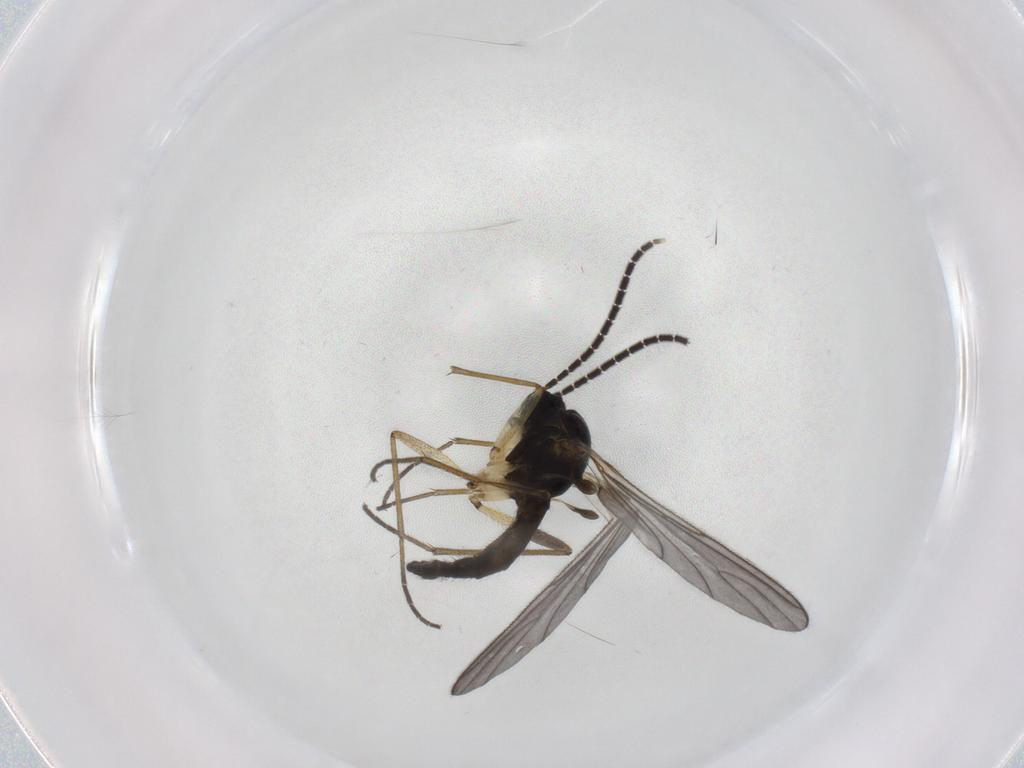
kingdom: Animalia
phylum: Arthropoda
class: Insecta
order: Diptera
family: Sciaridae
